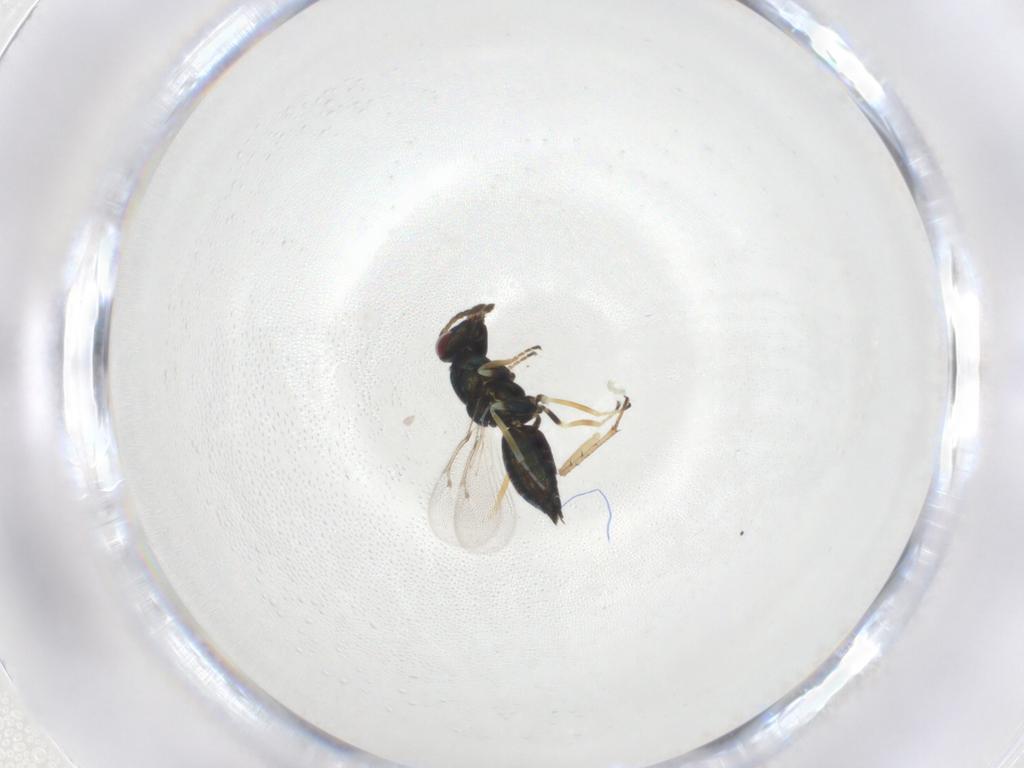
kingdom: Animalia
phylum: Arthropoda
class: Insecta
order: Hymenoptera
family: Eulophidae
